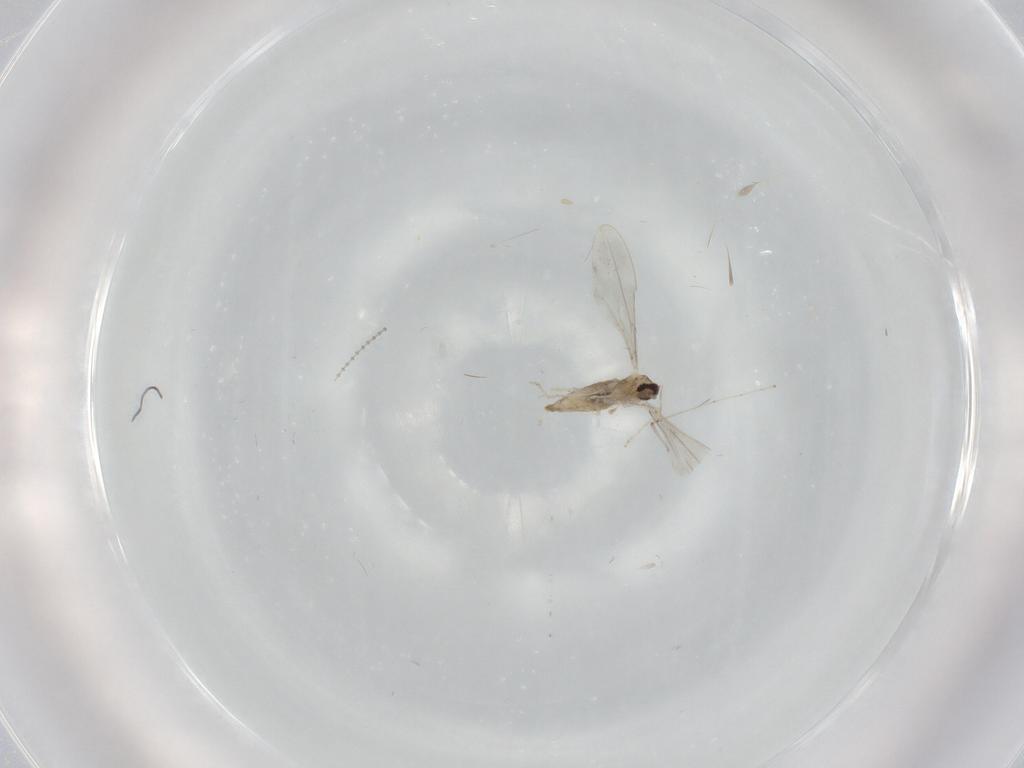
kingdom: Animalia
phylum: Arthropoda
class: Insecta
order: Diptera
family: Cecidomyiidae
